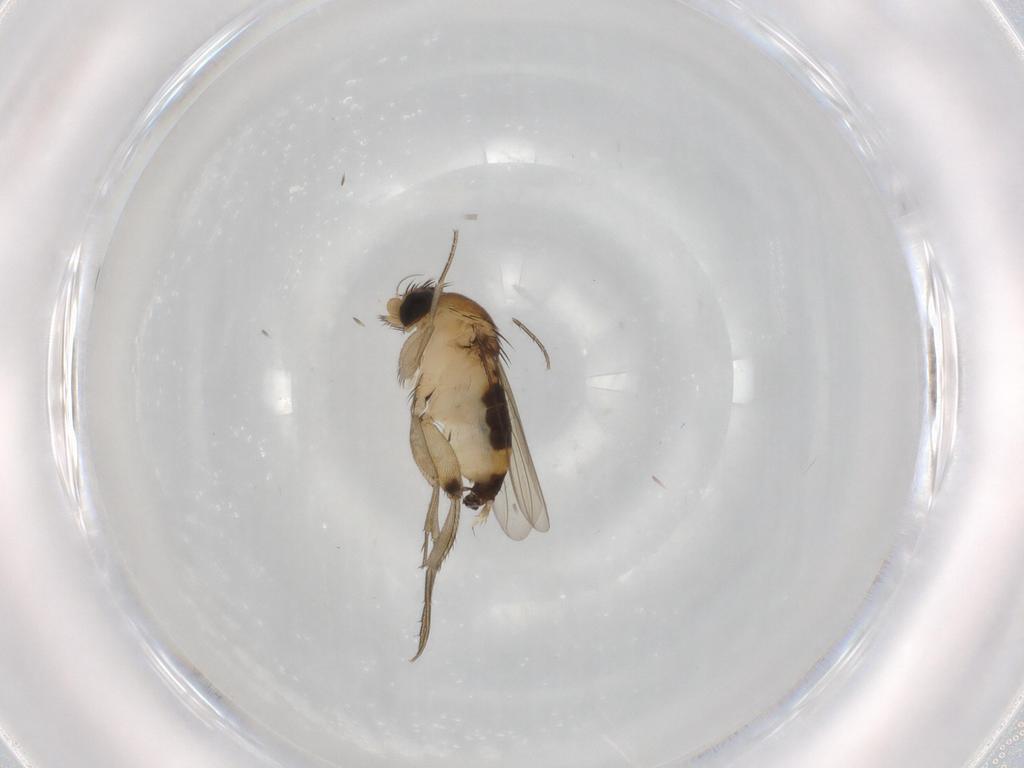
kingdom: Animalia
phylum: Arthropoda
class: Insecta
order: Diptera
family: Phoridae
